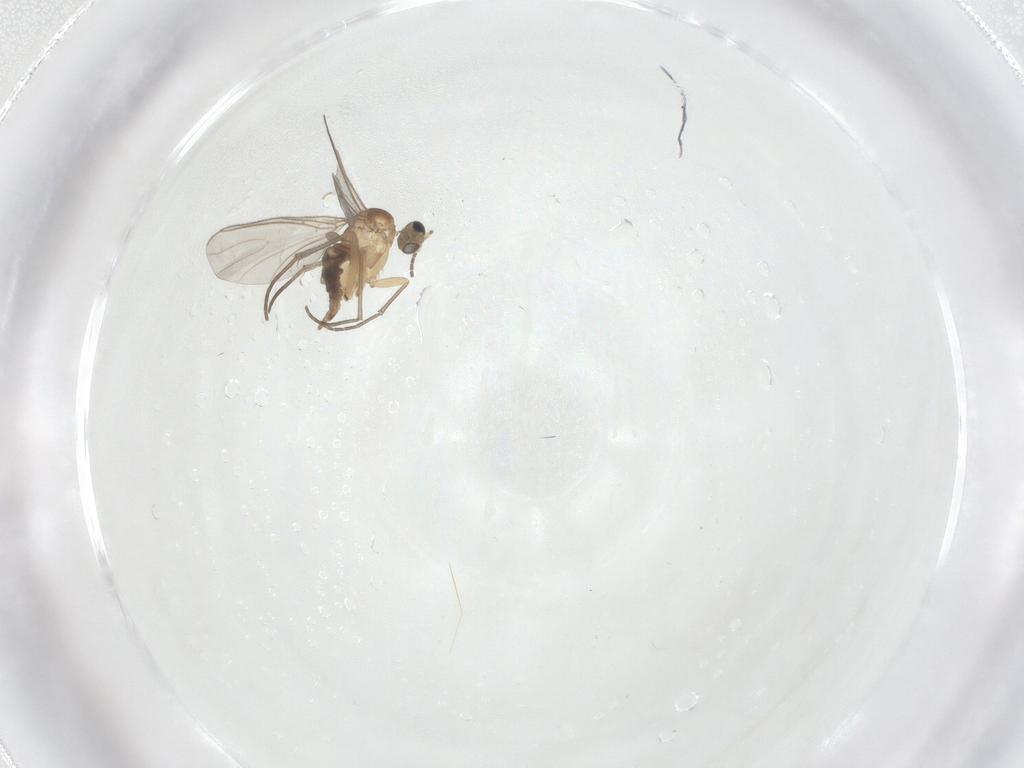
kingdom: Animalia
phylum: Arthropoda
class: Insecta
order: Diptera
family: Sciaridae
